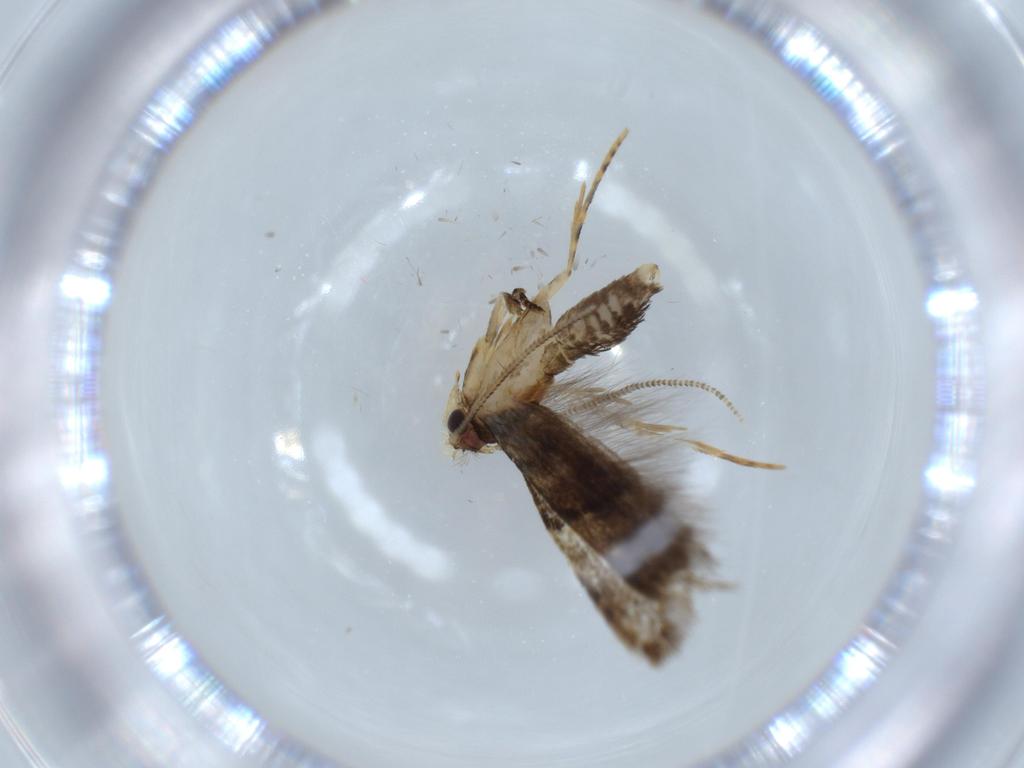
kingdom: Animalia
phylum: Arthropoda
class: Insecta
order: Lepidoptera
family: Tineidae
